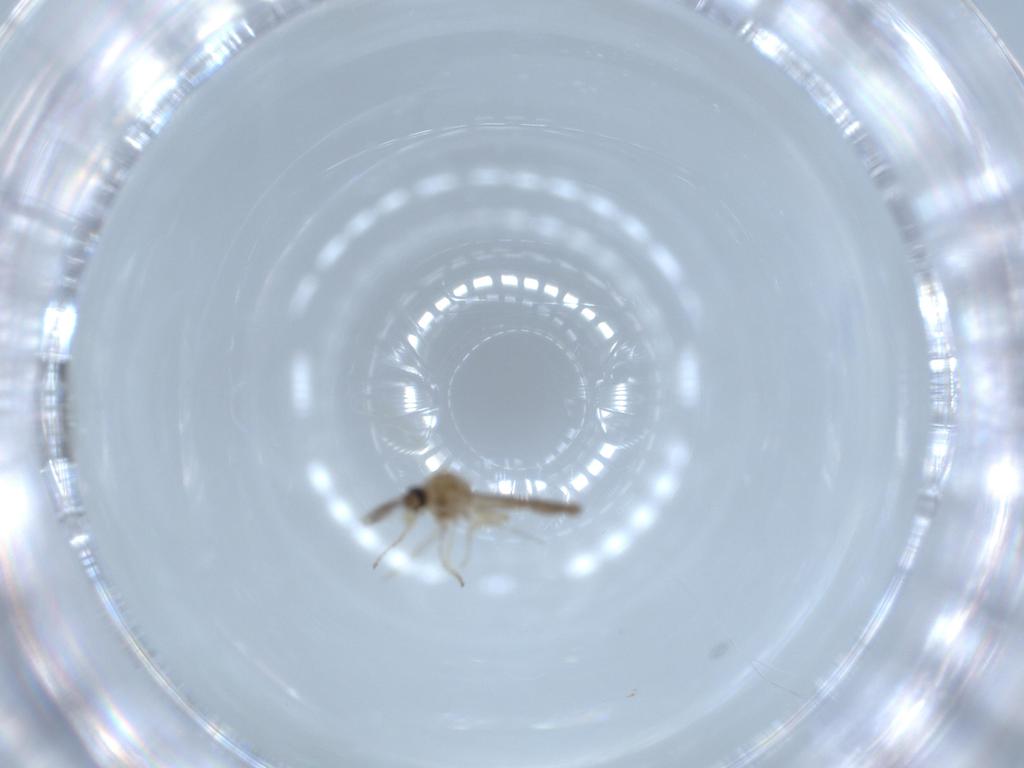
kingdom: Animalia
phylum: Arthropoda
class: Insecta
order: Diptera
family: Ceratopogonidae
